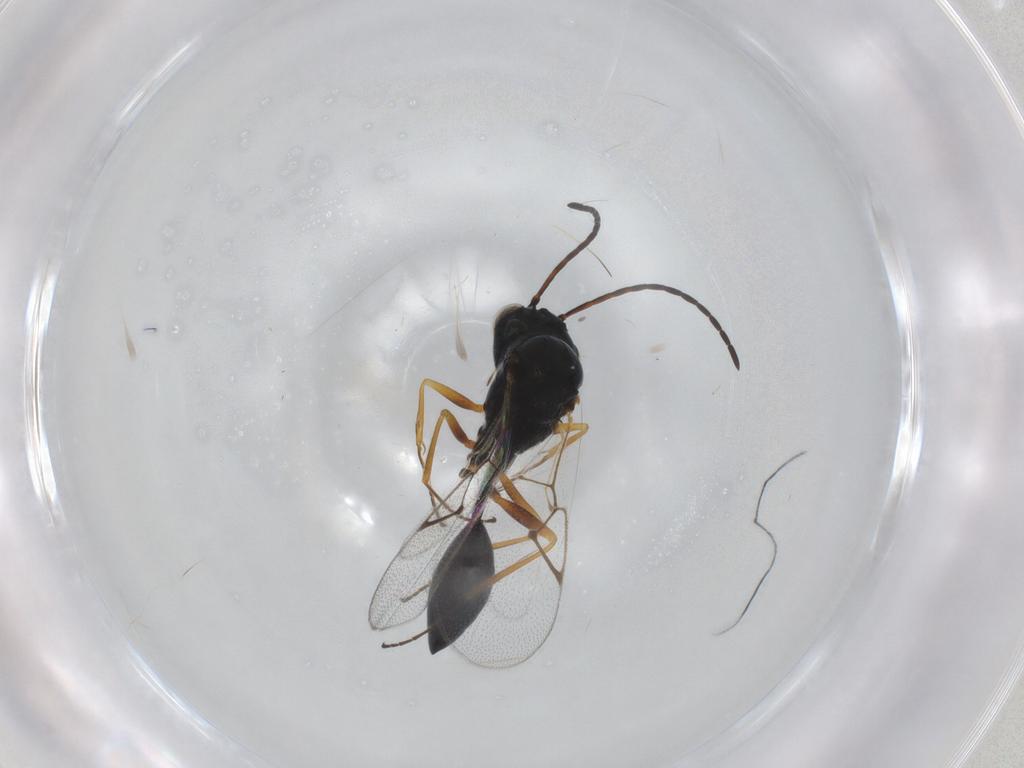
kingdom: Animalia
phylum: Arthropoda
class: Insecta
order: Hymenoptera
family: Figitidae
